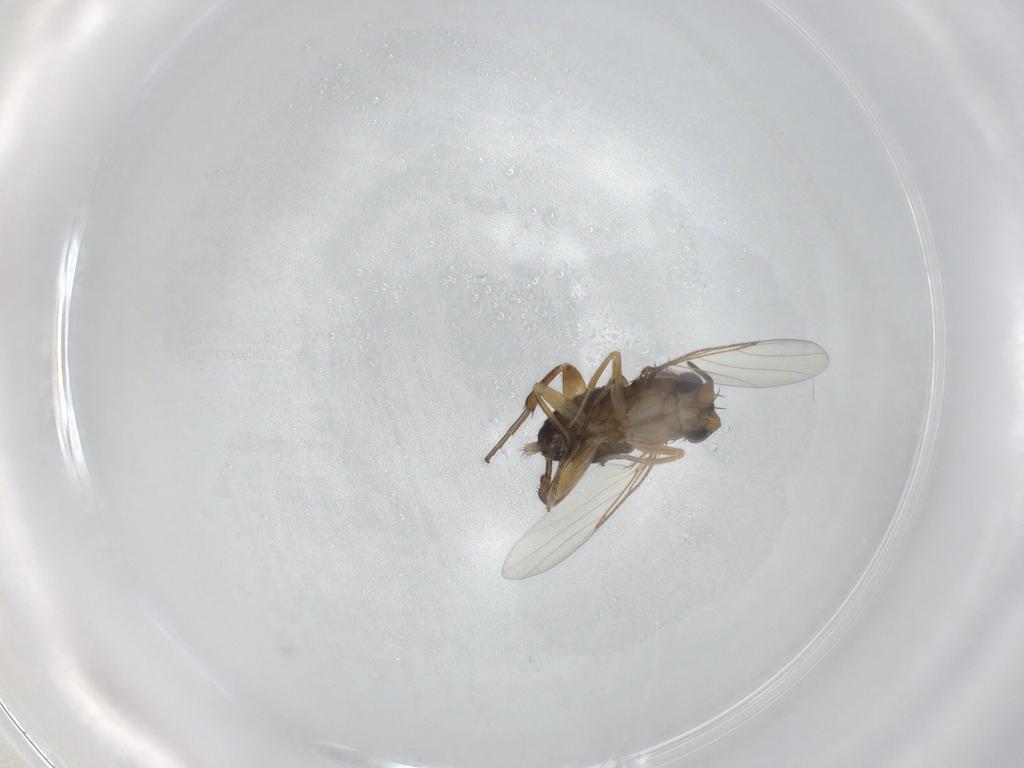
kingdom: Animalia
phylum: Arthropoda
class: Insecta
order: Diptera
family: Phoridae
